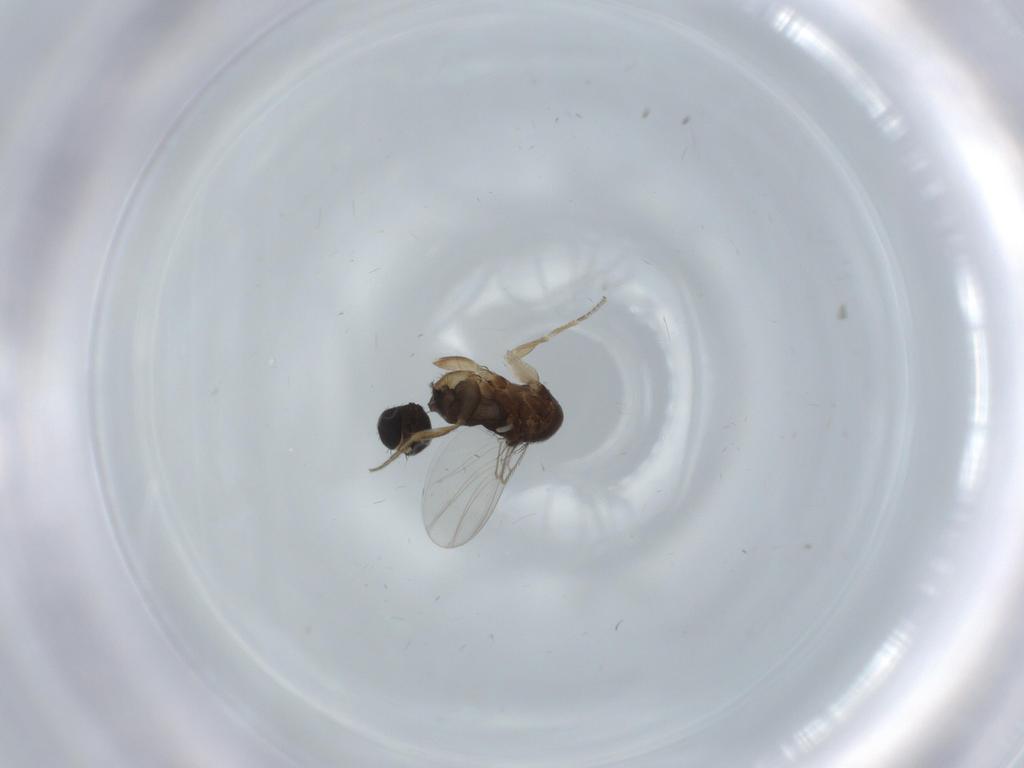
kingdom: Animalia
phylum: Arthropoda
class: Insecta
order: Diptera
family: Phoridae
